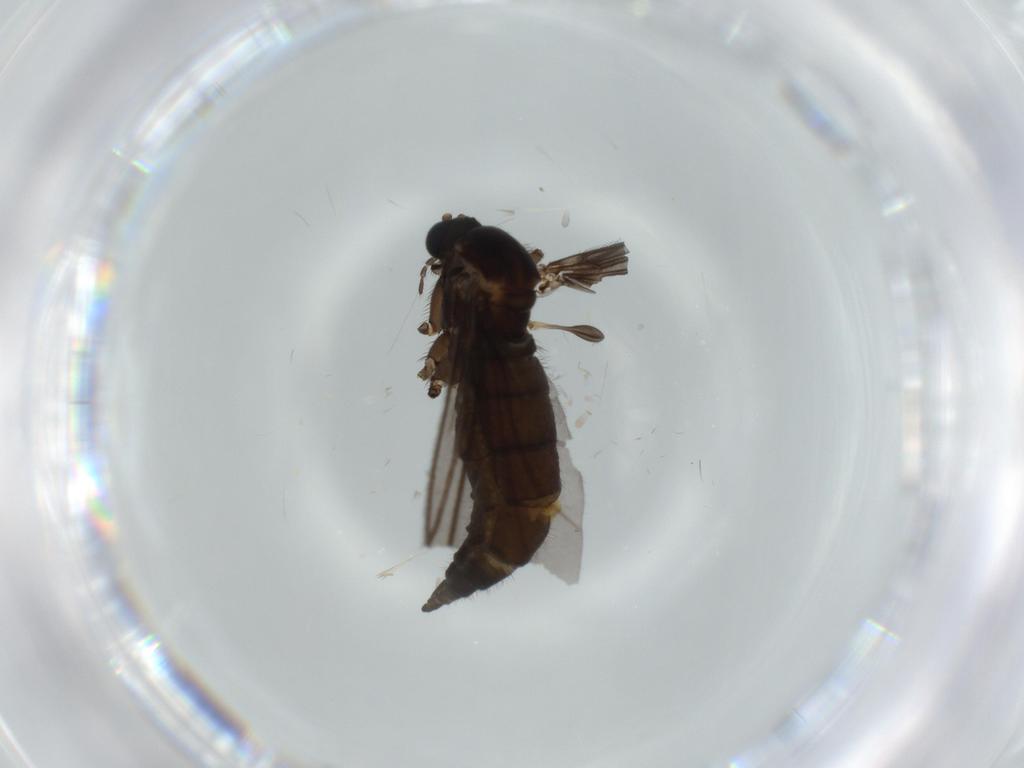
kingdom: Animalia
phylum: Arthropoda
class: Insecta
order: Diptera
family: Sciaridae
